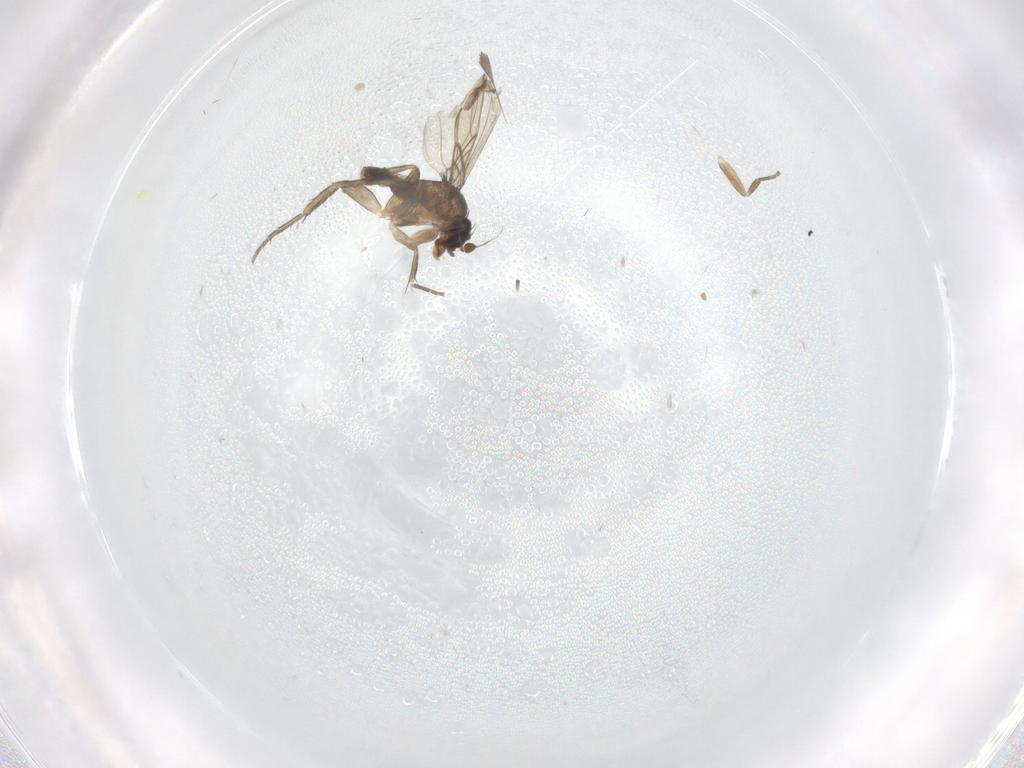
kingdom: Animalia
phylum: Arthropoda
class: Insecta
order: Diptera
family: Phoridae
